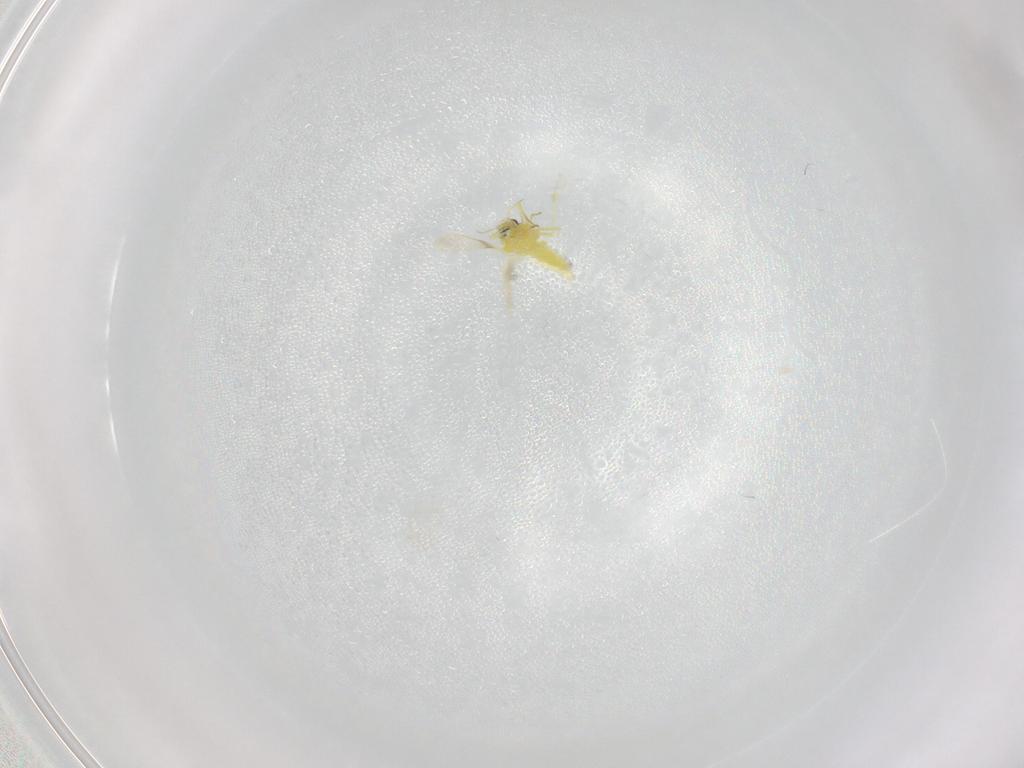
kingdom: Animalia
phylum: Arthropoda
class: Insecta
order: Hemiptera
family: Aleyrodidae
